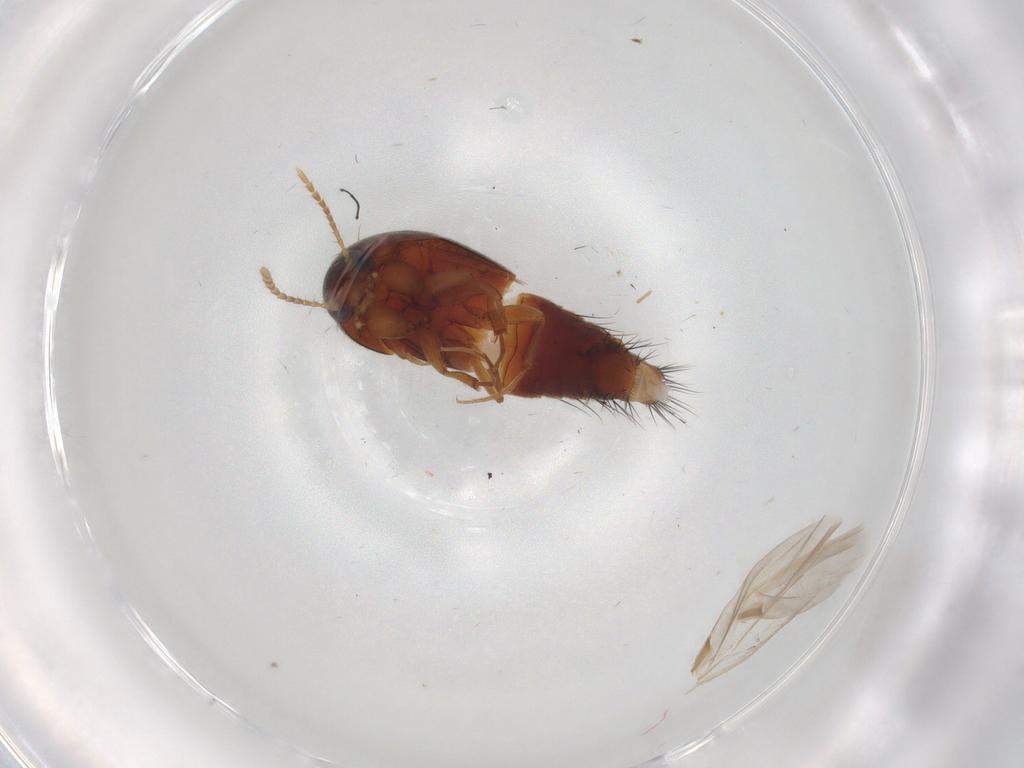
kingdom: Animalia
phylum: Arthropoda
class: Insecta
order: Coleoptera
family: Staphylinidae
